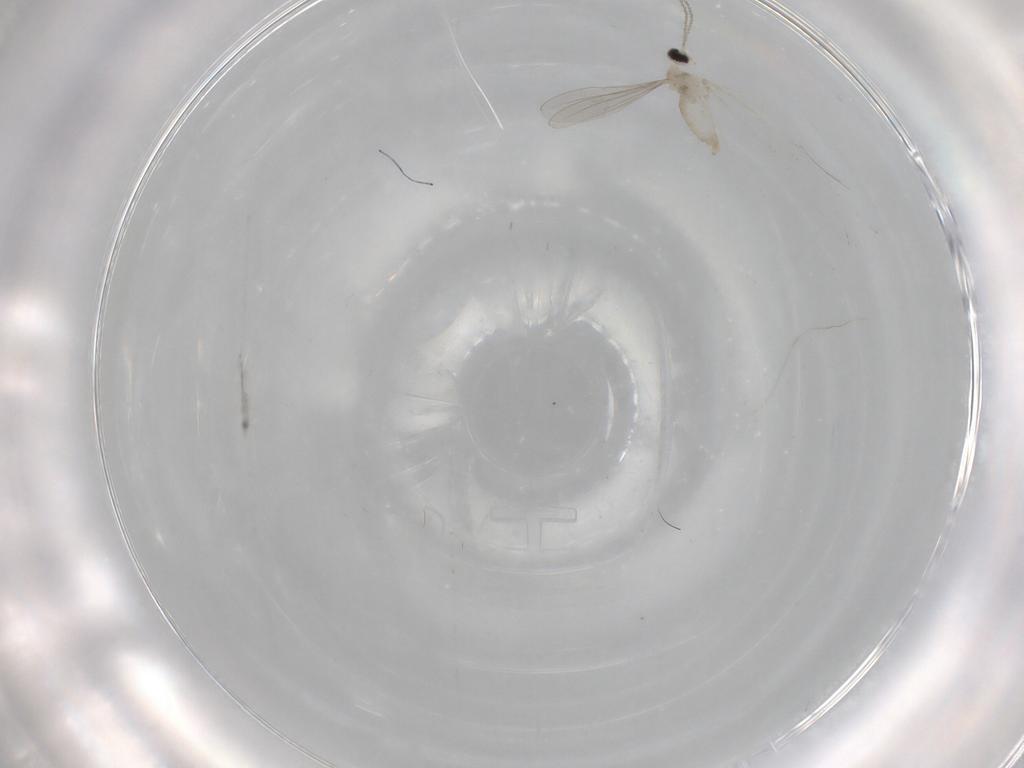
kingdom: Animalia
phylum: Arthropoda
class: Insecta
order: Diptera
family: Cecidomyiidae
